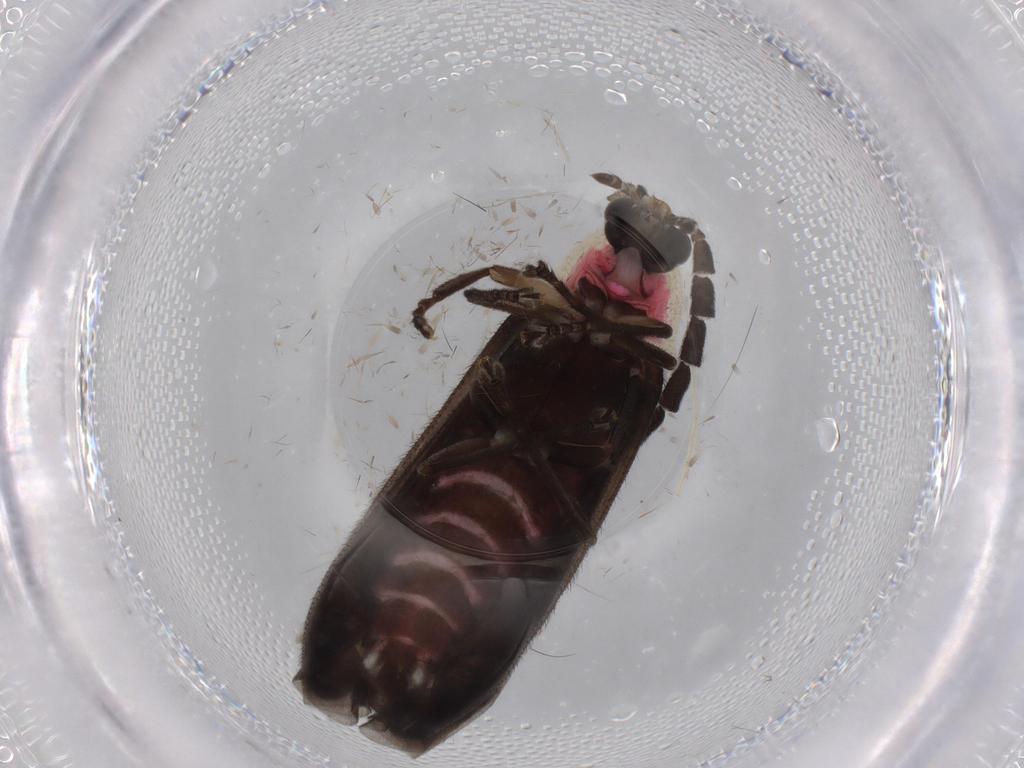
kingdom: Animalia
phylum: Arthropoda
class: Insecta
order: Coleoptera
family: Lampyridae
